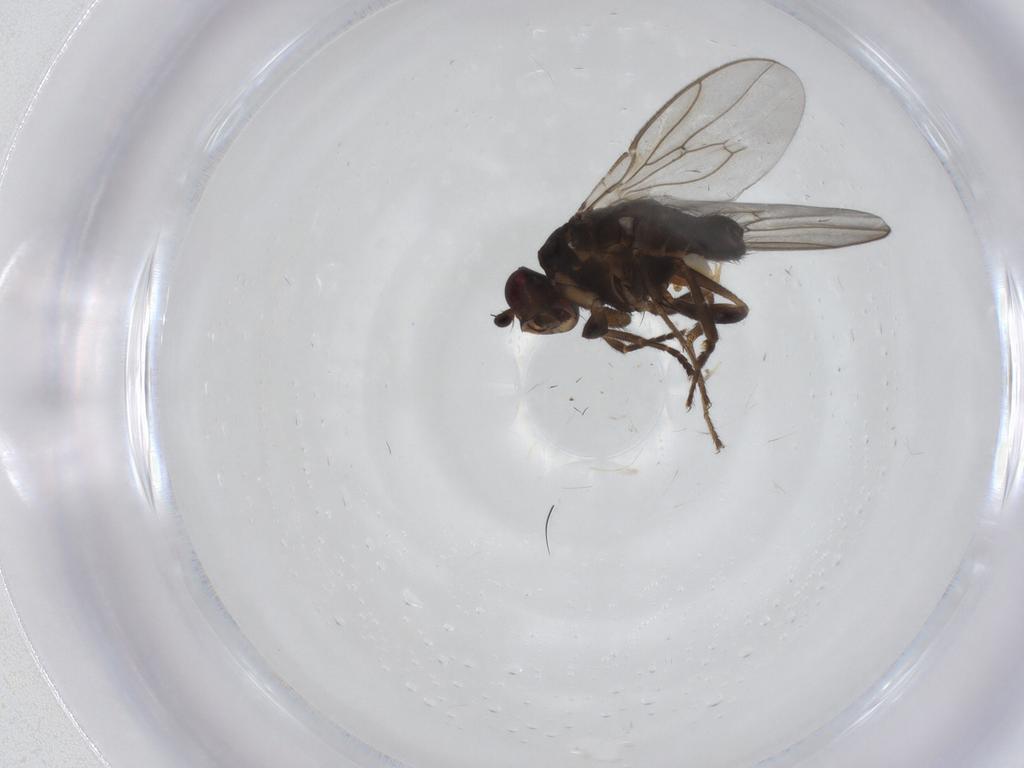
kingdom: Animalia
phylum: Arthropoda
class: Insecta
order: Diptera
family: Sphaeroceridae
